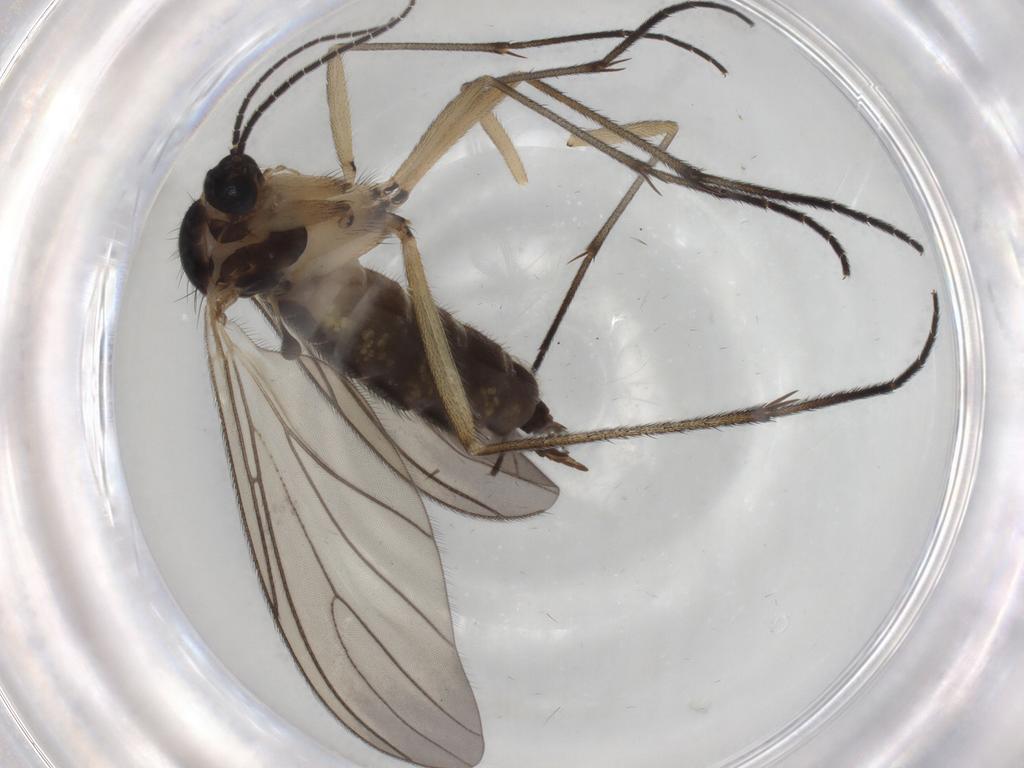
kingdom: Animalia
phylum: Arthropoda
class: Insecta
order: Diptera
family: Sciaridae
